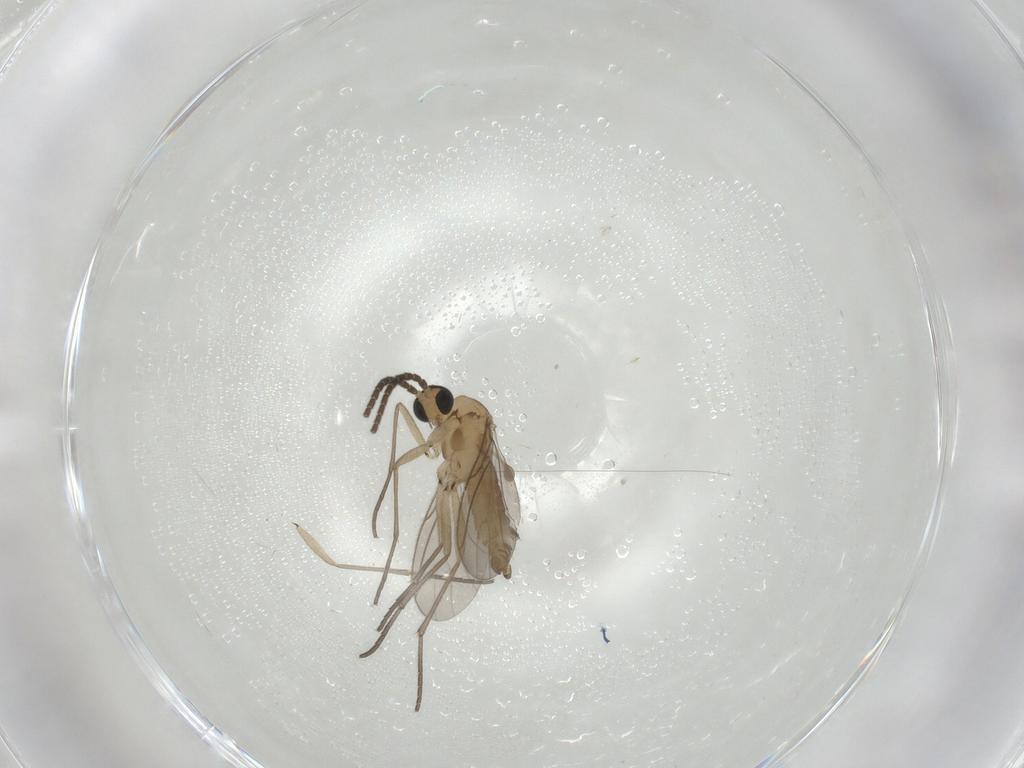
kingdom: Animalia
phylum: Arthropoda
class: Insecta
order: Diptera
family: Sciaridae
